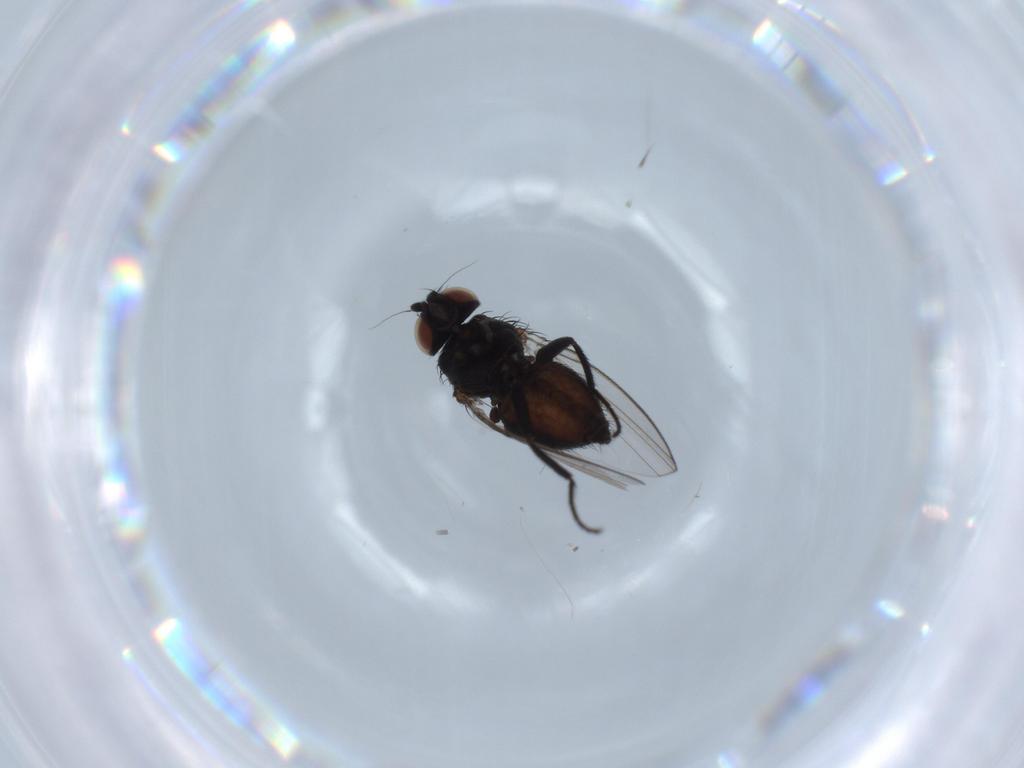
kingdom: Animalia
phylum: Arthropoda
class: Insecta
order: Diptera
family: Milichiidae
